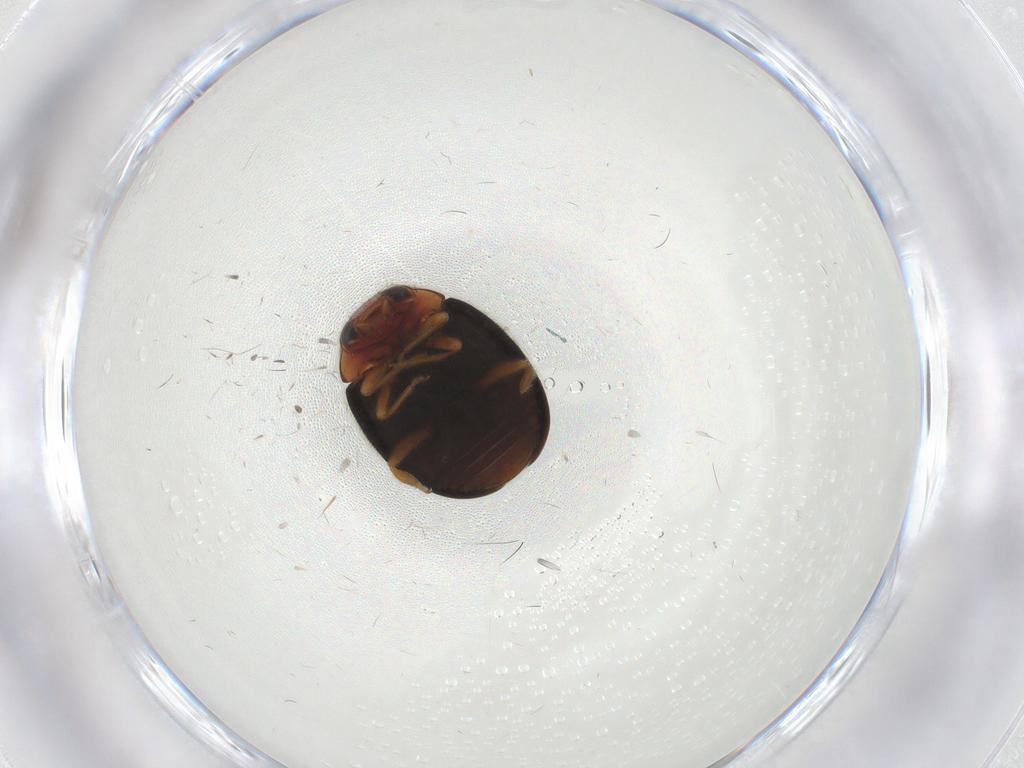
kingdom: Animalia
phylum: Arthropoda
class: Insecta
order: Coleoptera
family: Coccinellidae
